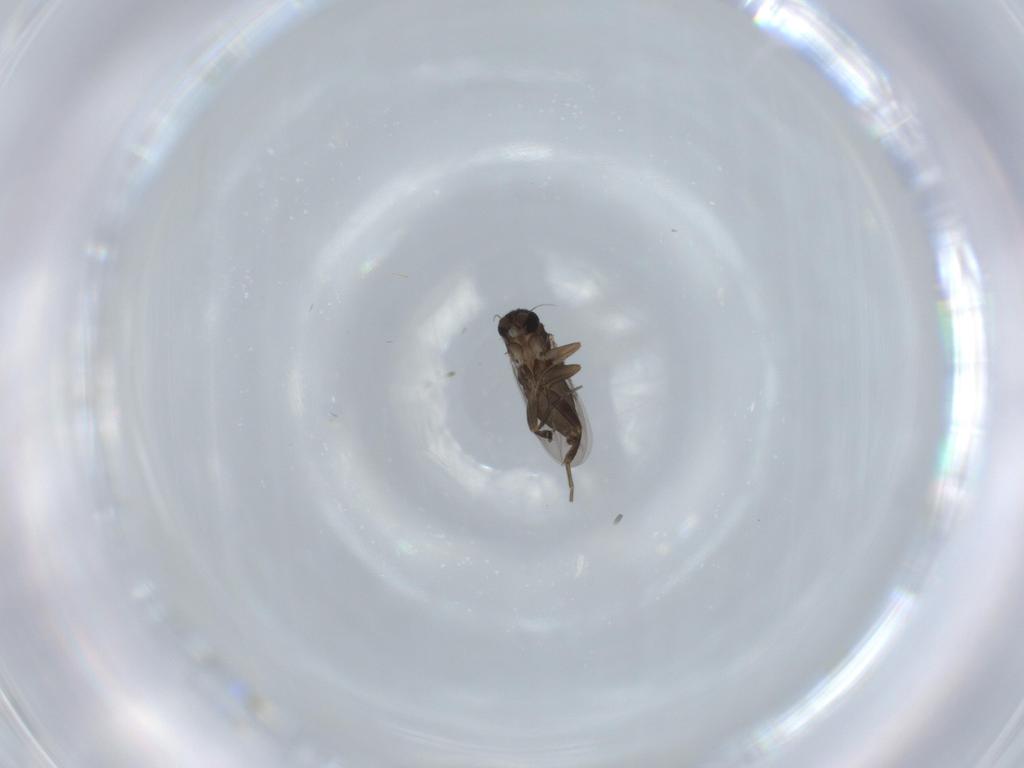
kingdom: Animalia
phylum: Arthropoda
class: Insecta
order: Diptera
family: Phoridae
